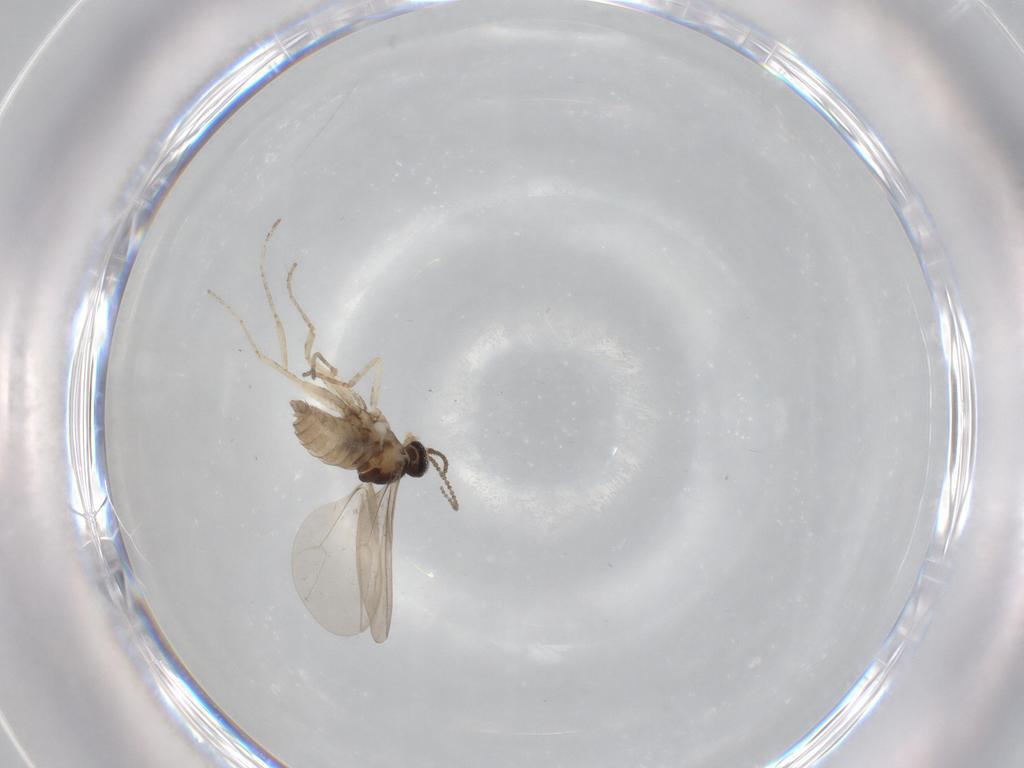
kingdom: Animalia
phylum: Arthropoda
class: Insecta
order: Diptera
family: Cecidomyiidae
